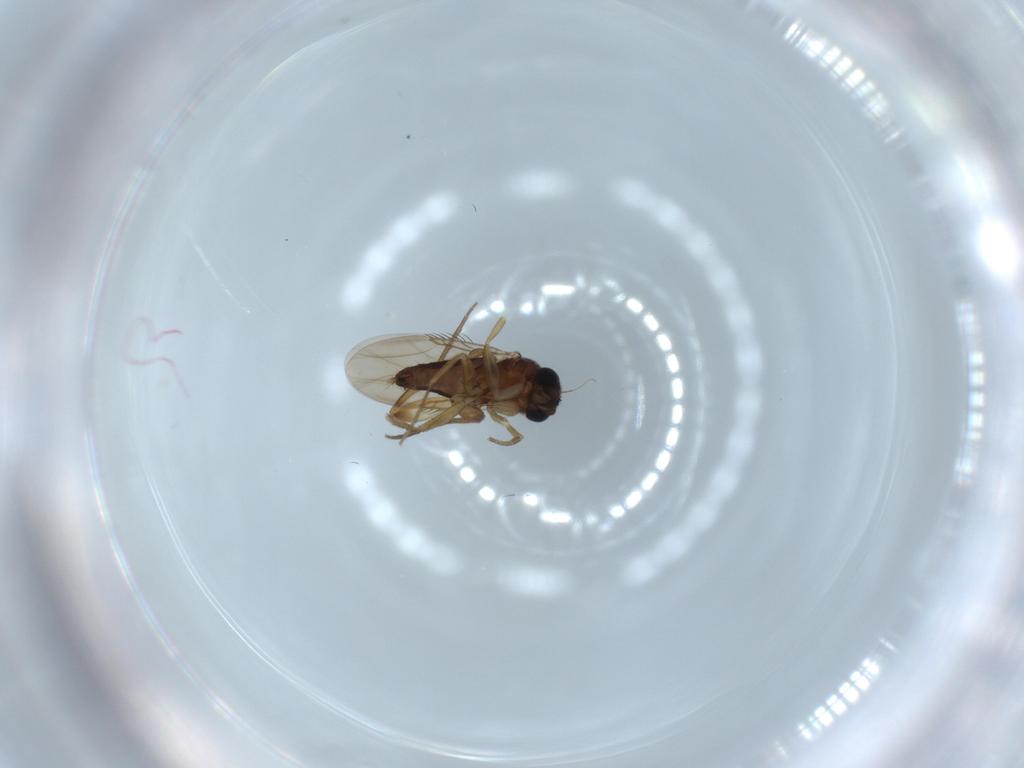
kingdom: Animalia
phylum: Arthropoda
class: Insecta
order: Diptera
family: Phoridae
